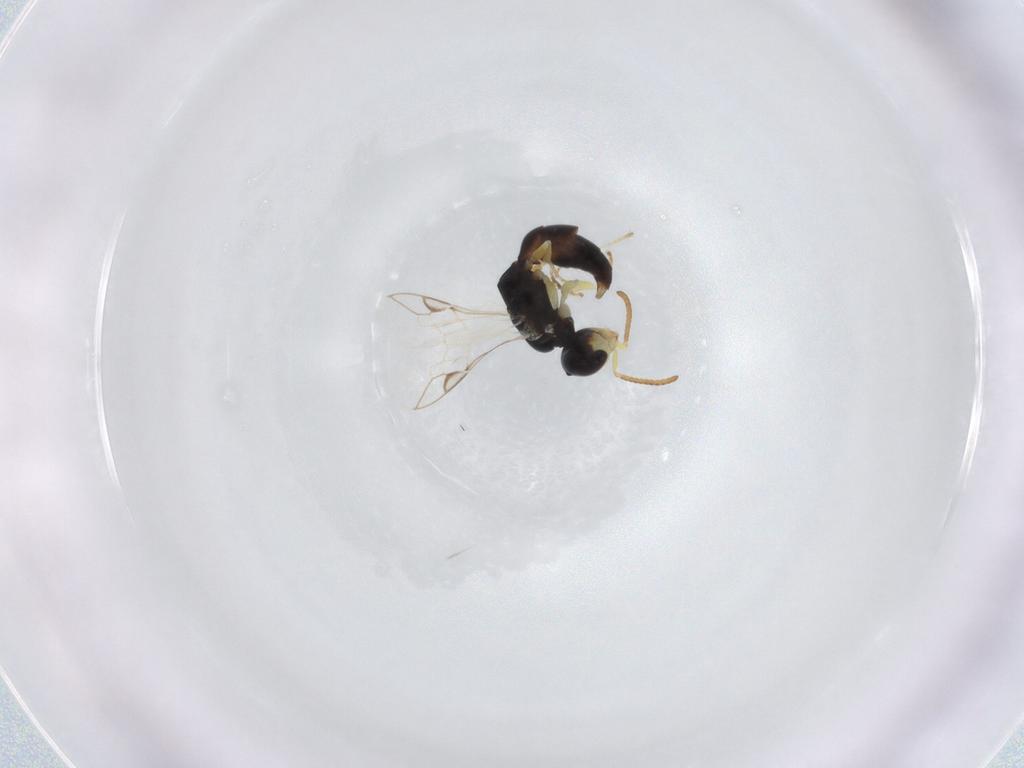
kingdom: Animalia
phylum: Arthropoda
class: Insecta
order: Hymenoptera
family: Pemphredonidae
